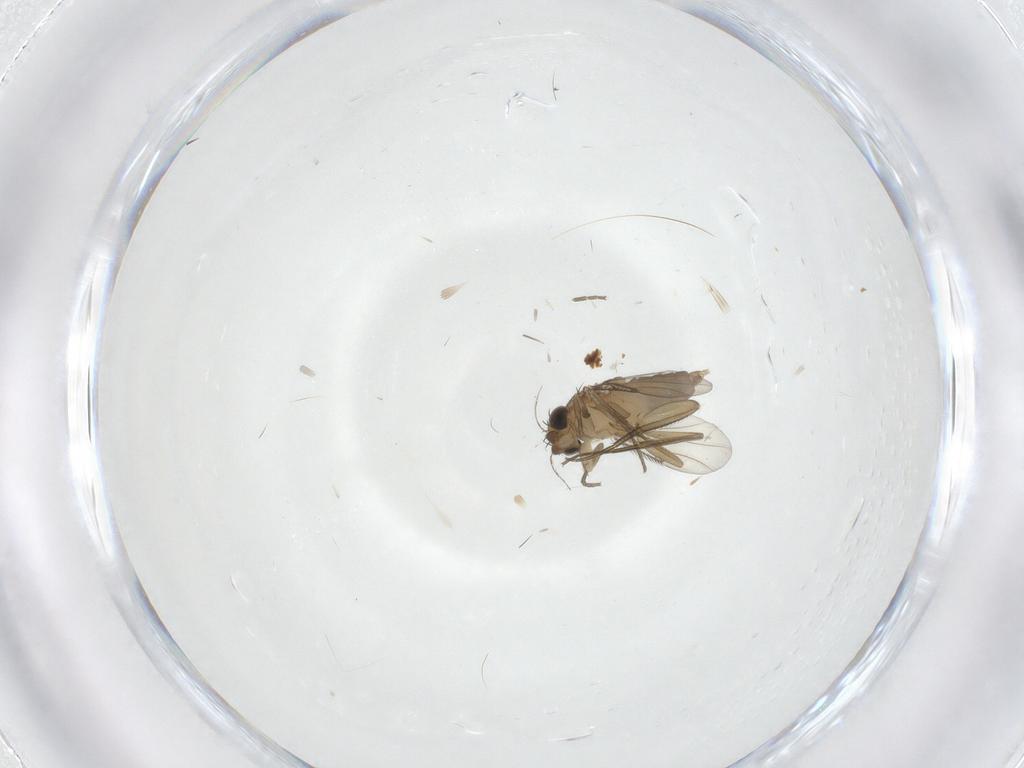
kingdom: Animalia
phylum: Arthropoda
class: Insecta
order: Diptera
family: Phoridae
